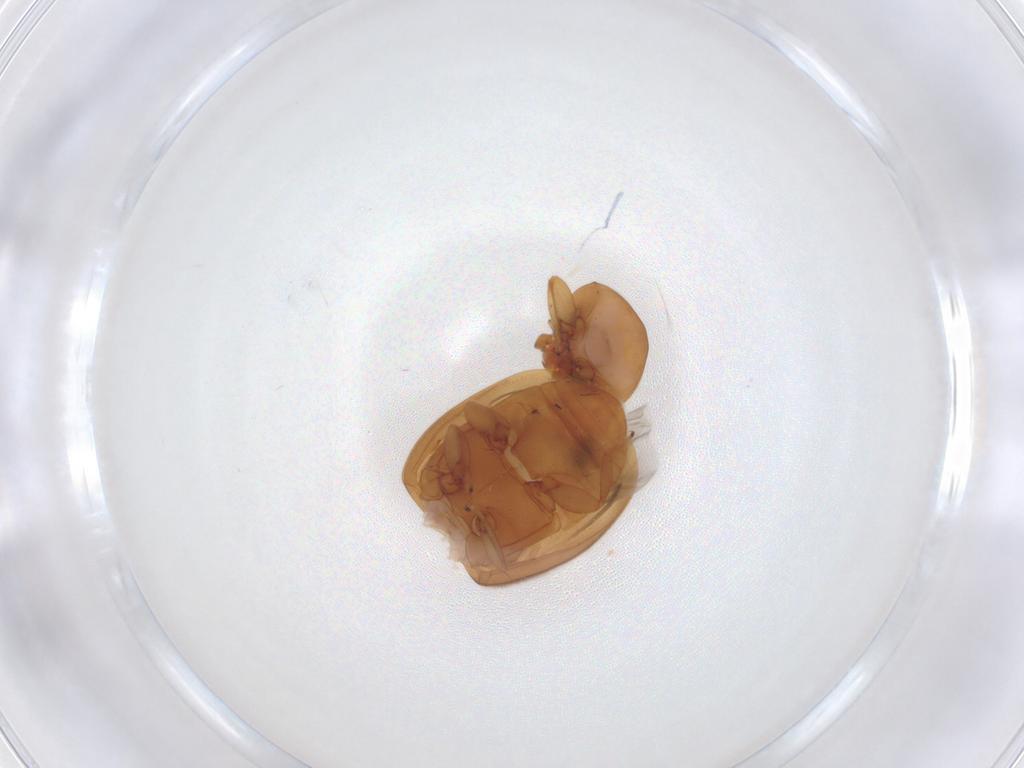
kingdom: Animalia
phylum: Arthropoda
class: Insecta
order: Coleoptera
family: Coccinellidae
